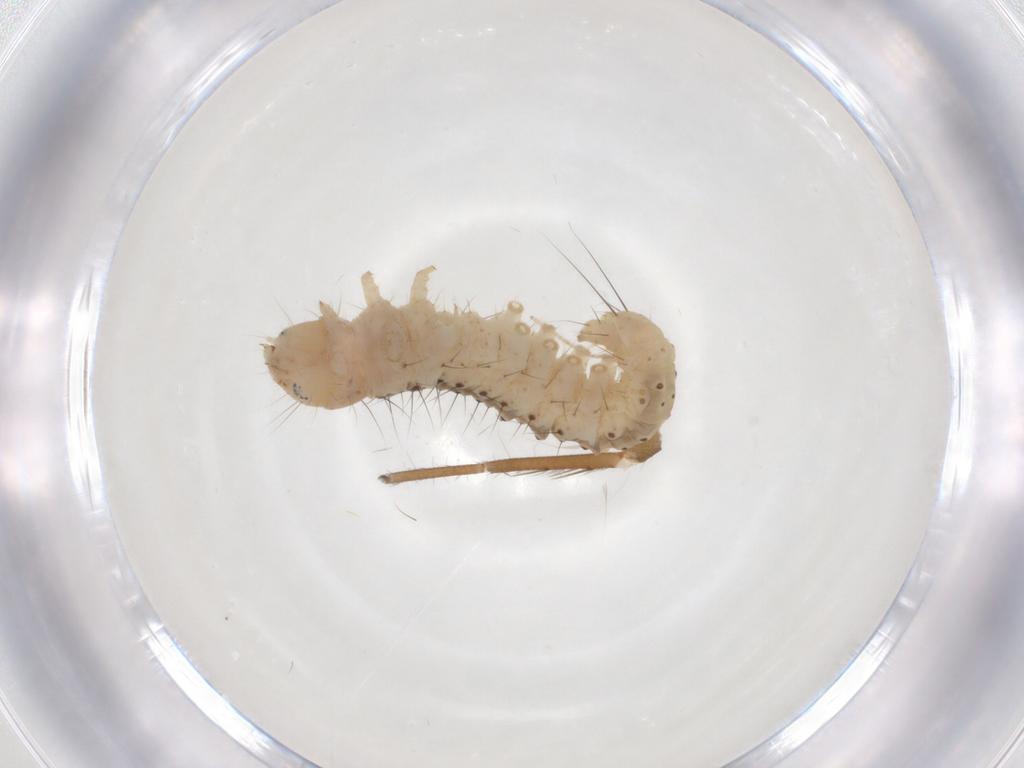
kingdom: Animalia
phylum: Arthropoda
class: Insecta
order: Lepidoptera
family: Gelechiidae
